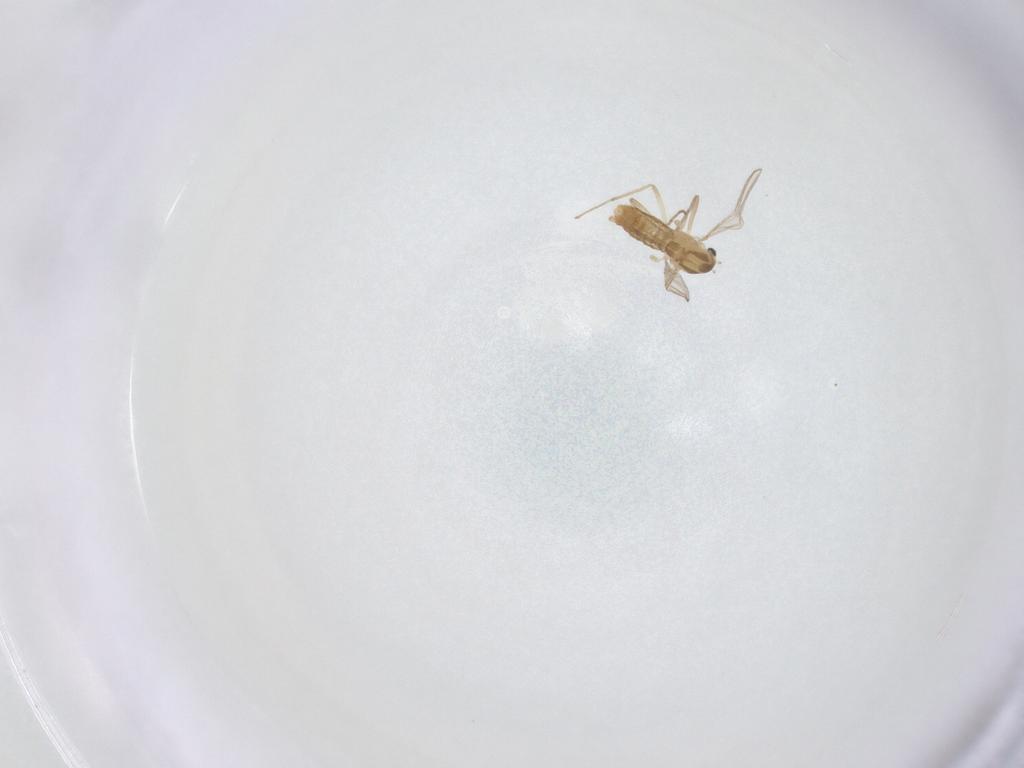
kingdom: Animalia
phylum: Arthropoda
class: Insecta
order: Diptera
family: Chironomidae
